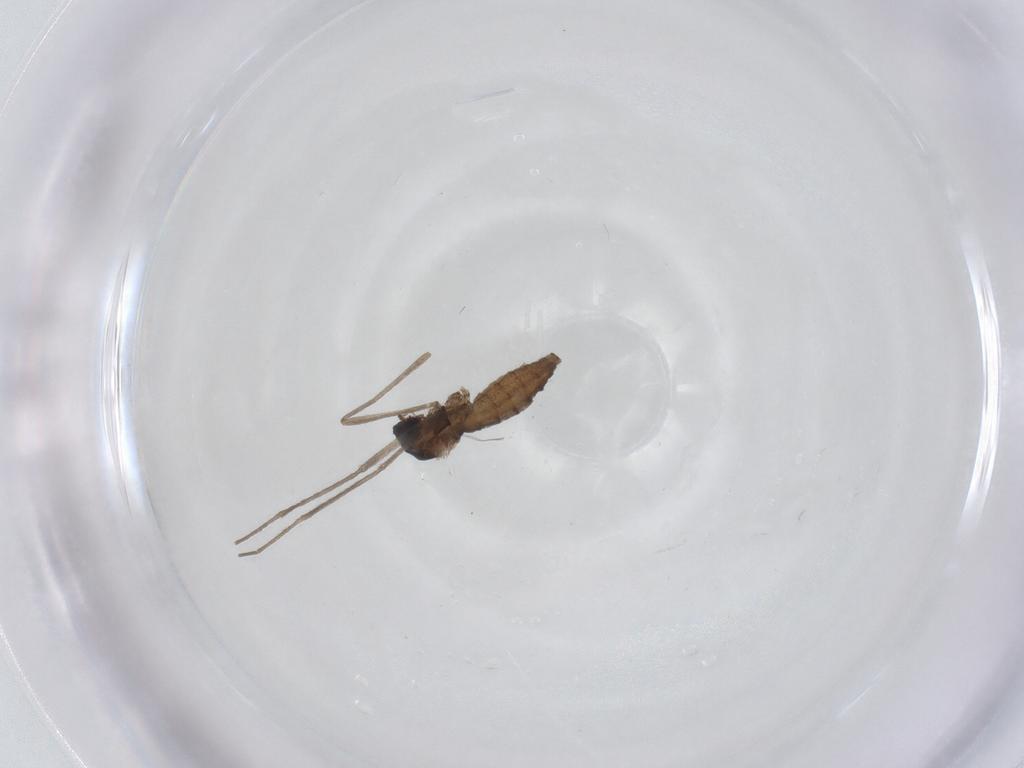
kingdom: Animalia
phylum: Arthropoda
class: Insecta
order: Diptera
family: Cecidomyiidae
